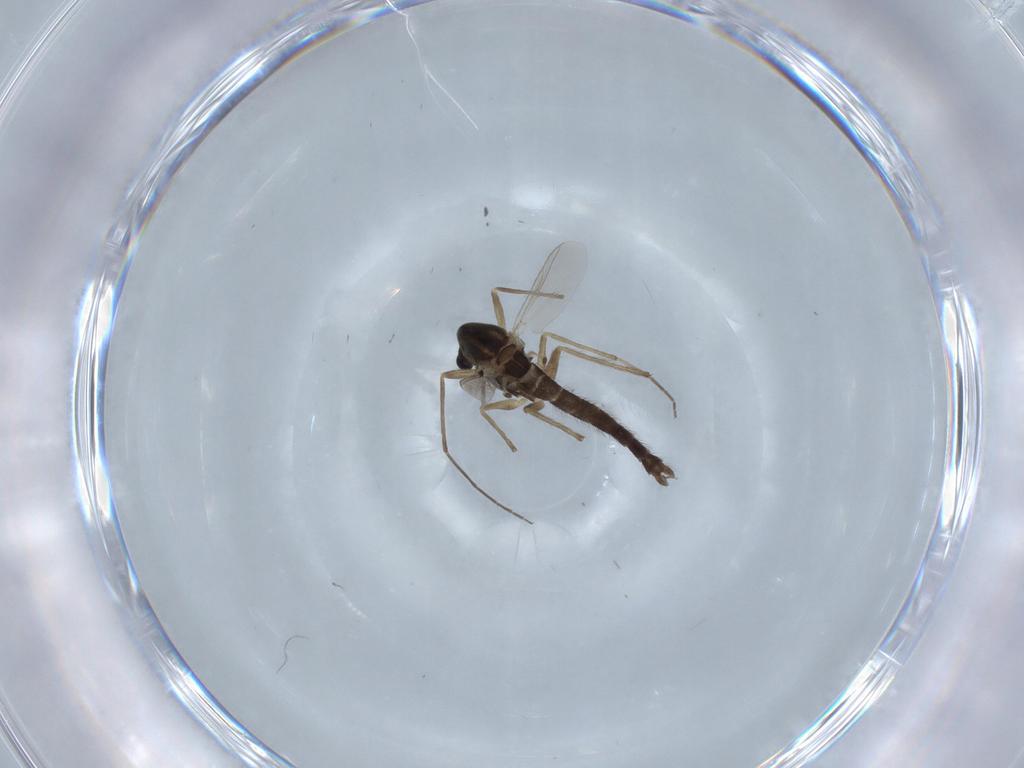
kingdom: Animalia
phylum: Arthropoda
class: Insecta
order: Diptera
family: Chironomidae
